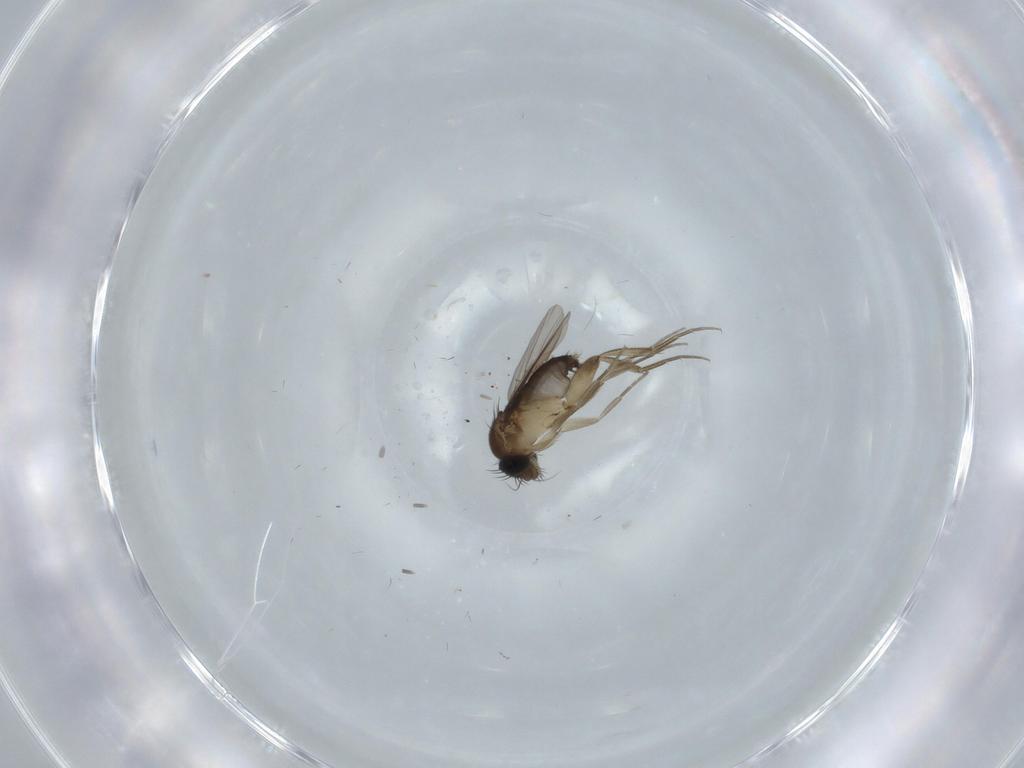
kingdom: Animalia
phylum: Arthropoda
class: Insecta
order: Diptera
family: Phoridae
